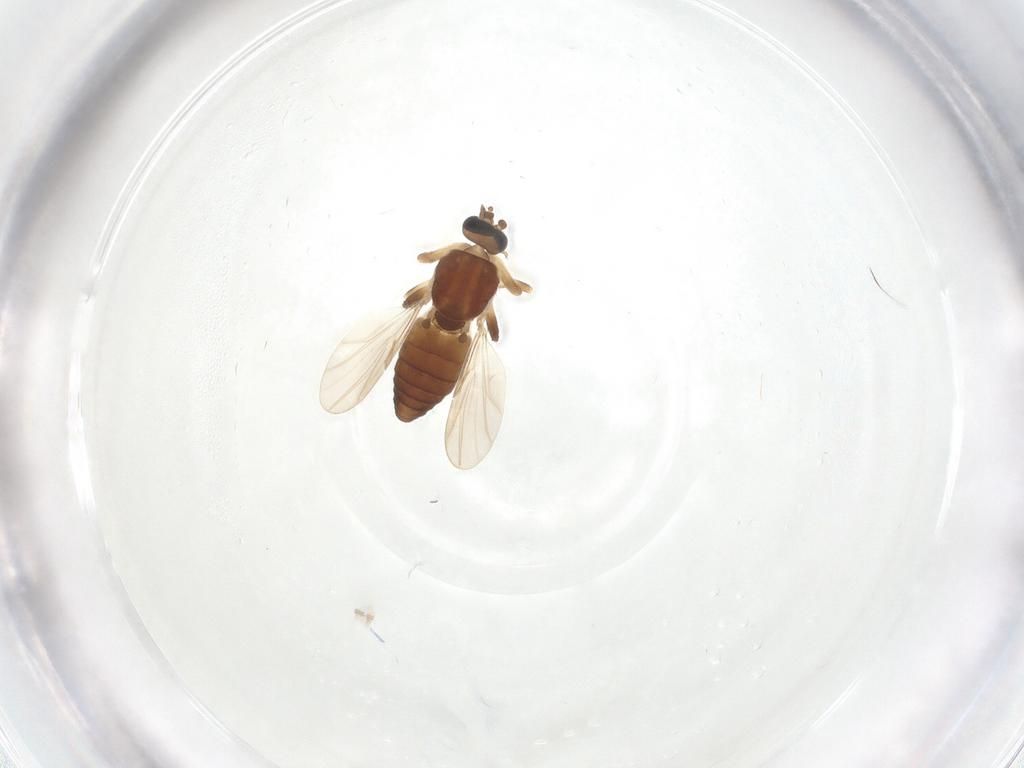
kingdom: Animalia
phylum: Arthropoda
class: Insecta
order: Diptera
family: Ceratopogonidae
